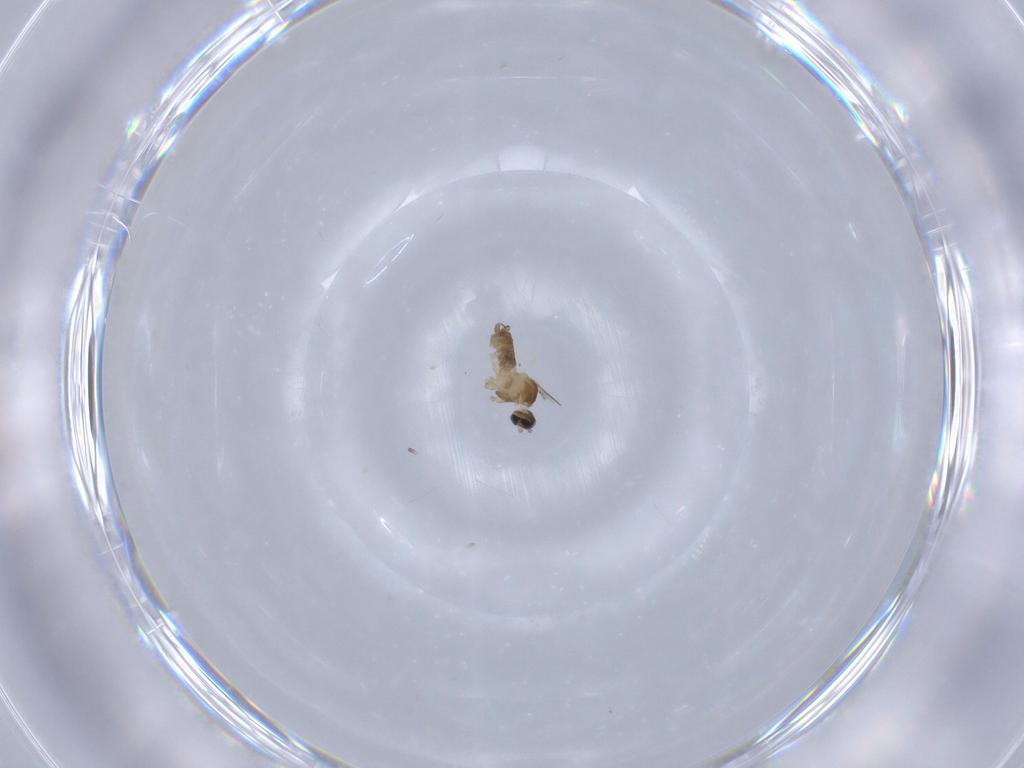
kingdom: Animalia
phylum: Arthropoda
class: Insecta
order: Diptera
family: Cecidomyiidae
